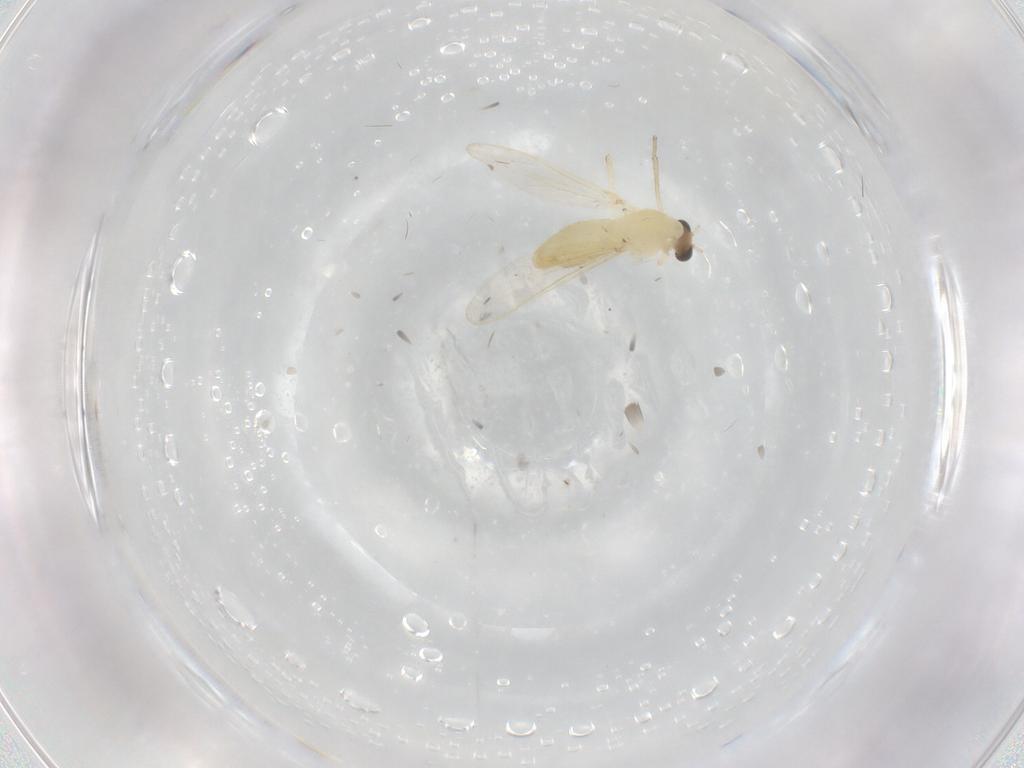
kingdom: Animalia
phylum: Arthropoda
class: Insecta
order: Diptera
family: Chironomidae
